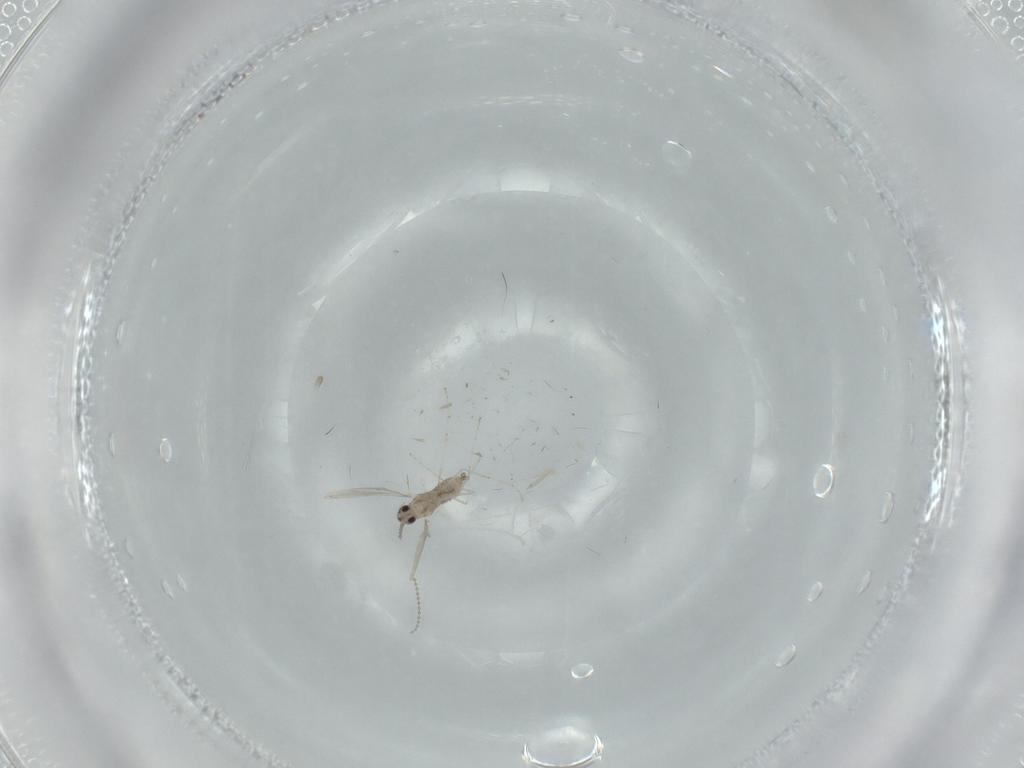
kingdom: Animalia
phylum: Arthropoda
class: Insecta
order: Diptera
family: Cecidomyiidae
